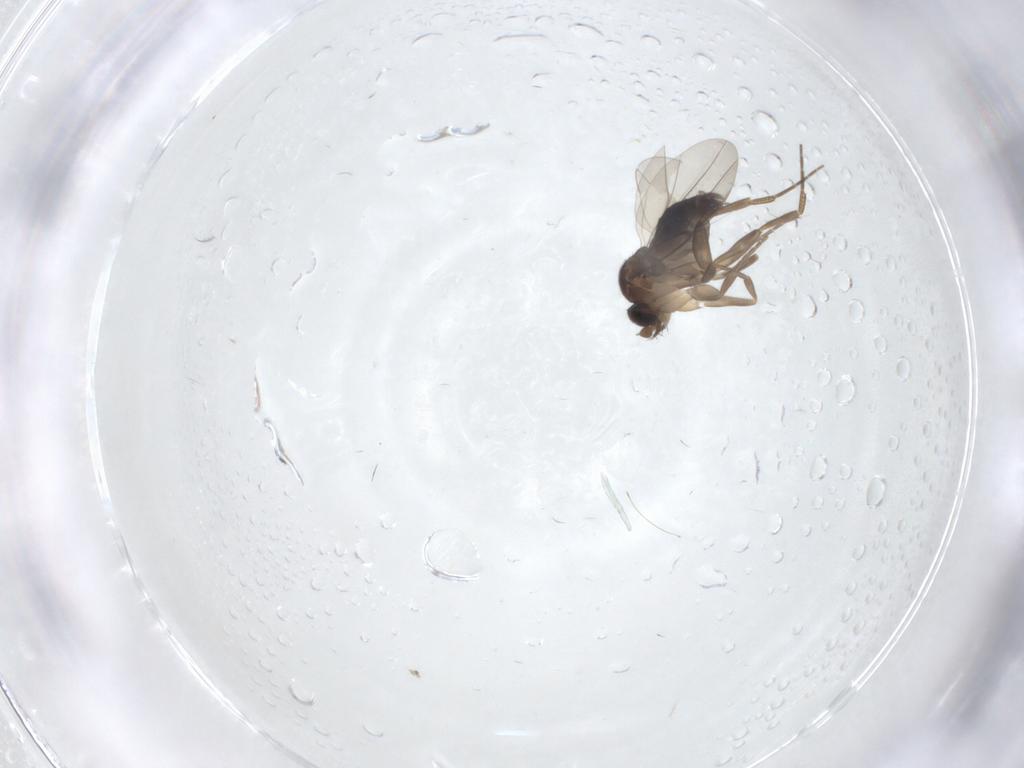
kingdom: Animalia
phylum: Arthropoda
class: Insecta
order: Diptera
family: Phoridae
